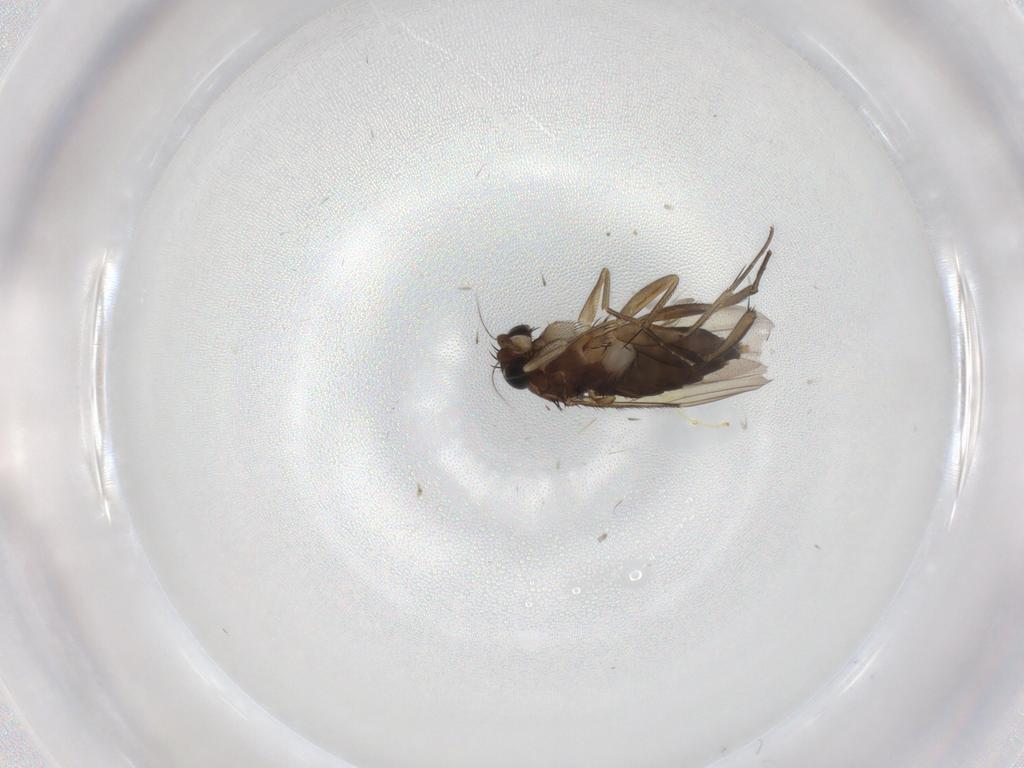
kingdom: Animalia
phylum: Arthropoda
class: Insecta
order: Diptera
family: Phoridae
